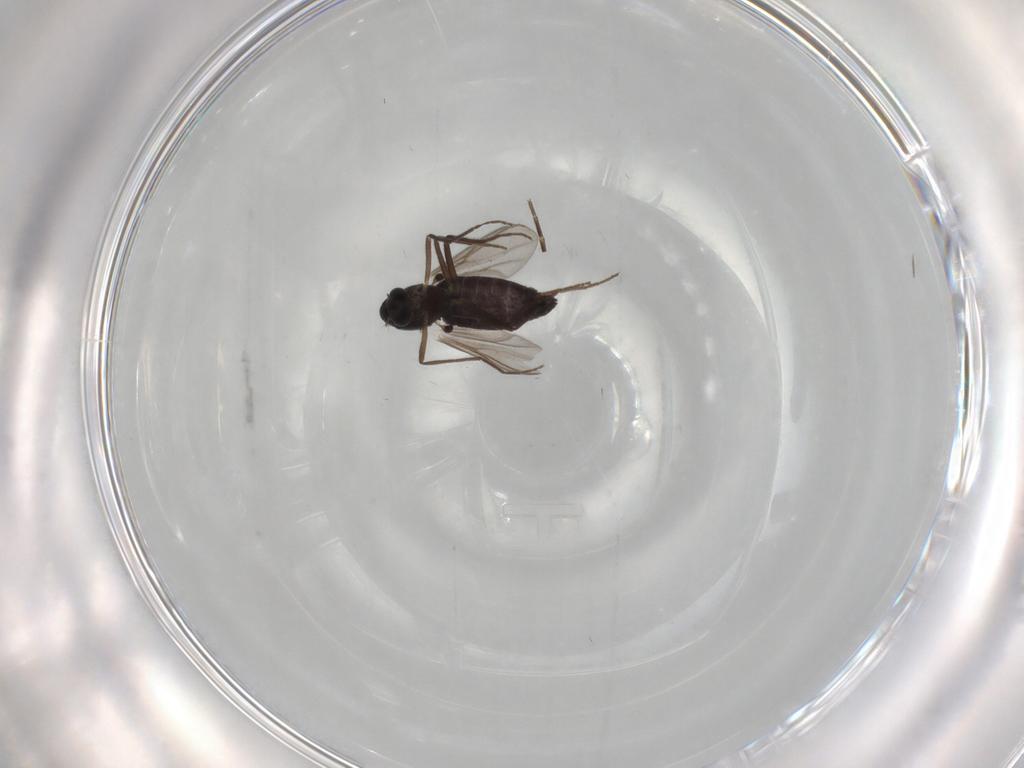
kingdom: Animalia
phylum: Arthropoda
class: Insecta
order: Diptera
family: Chironomidae
